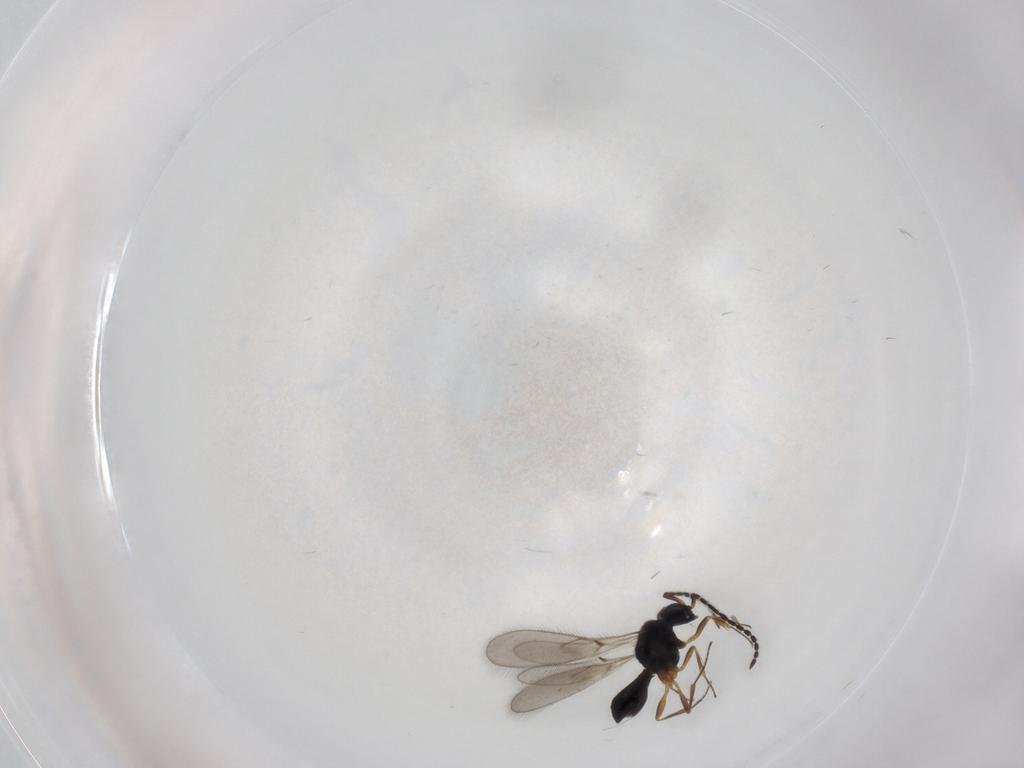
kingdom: Animalia
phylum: Arthropoda
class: Insecta
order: Hymenoptera
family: Scelionidae
